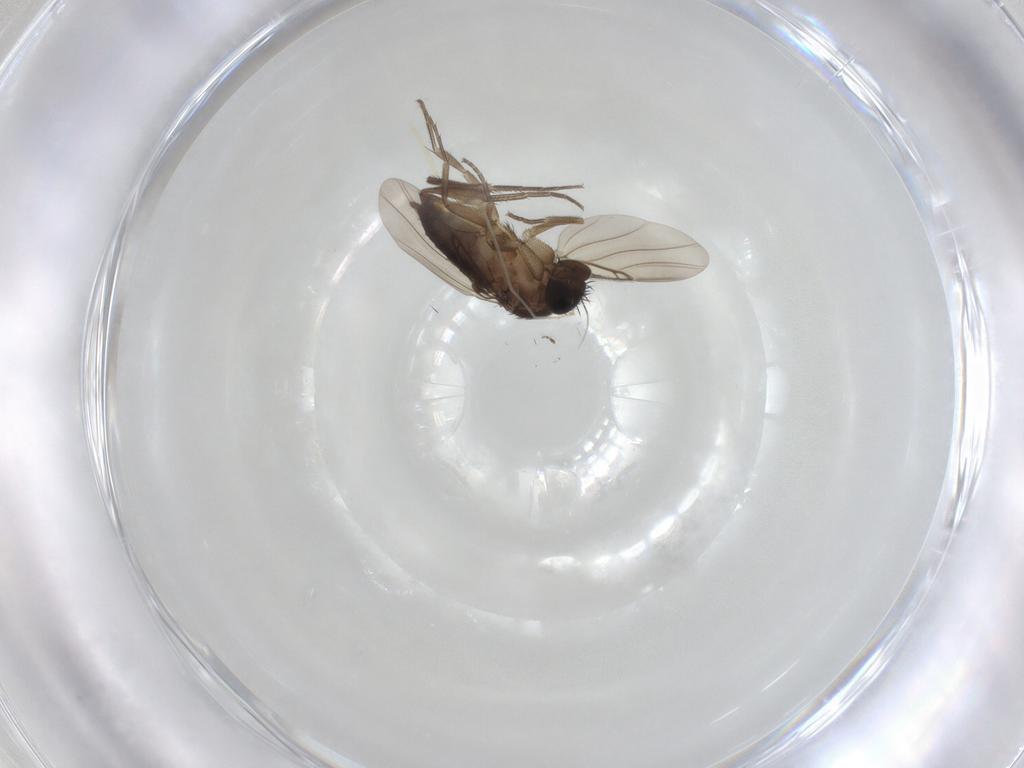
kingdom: Animalia
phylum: Arthropoda
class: Insecta
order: Diptera
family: Phoridae
